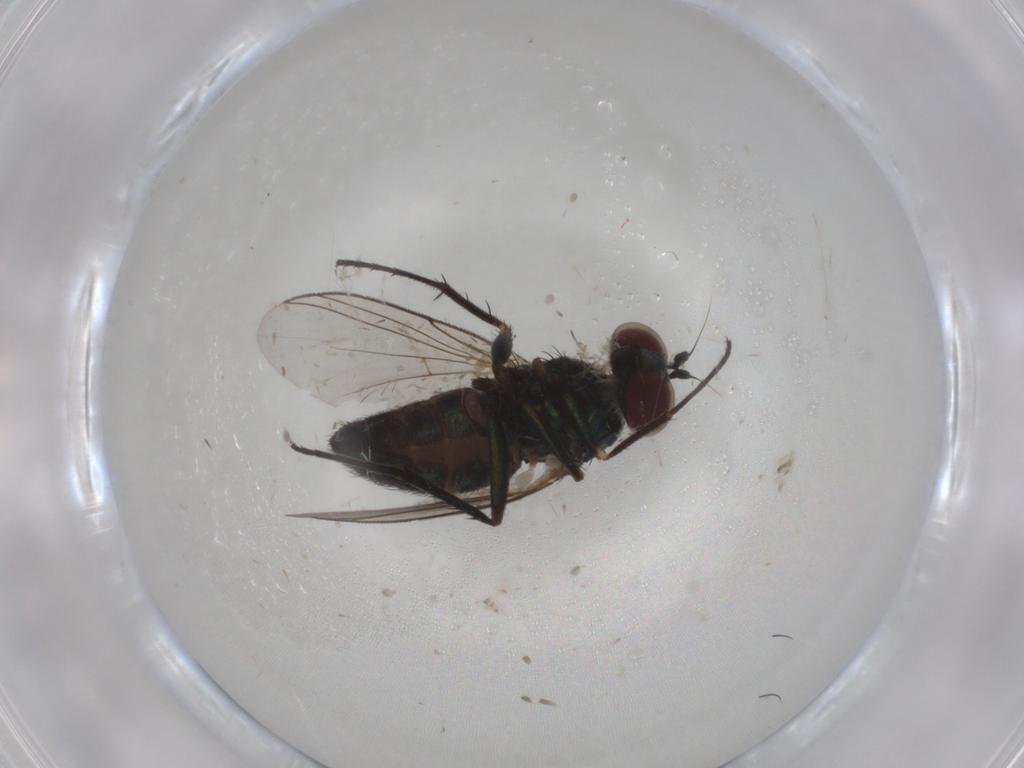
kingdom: Animalia
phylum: Arthropoda
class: Insecta
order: Diptera
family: Dolichopodidae
